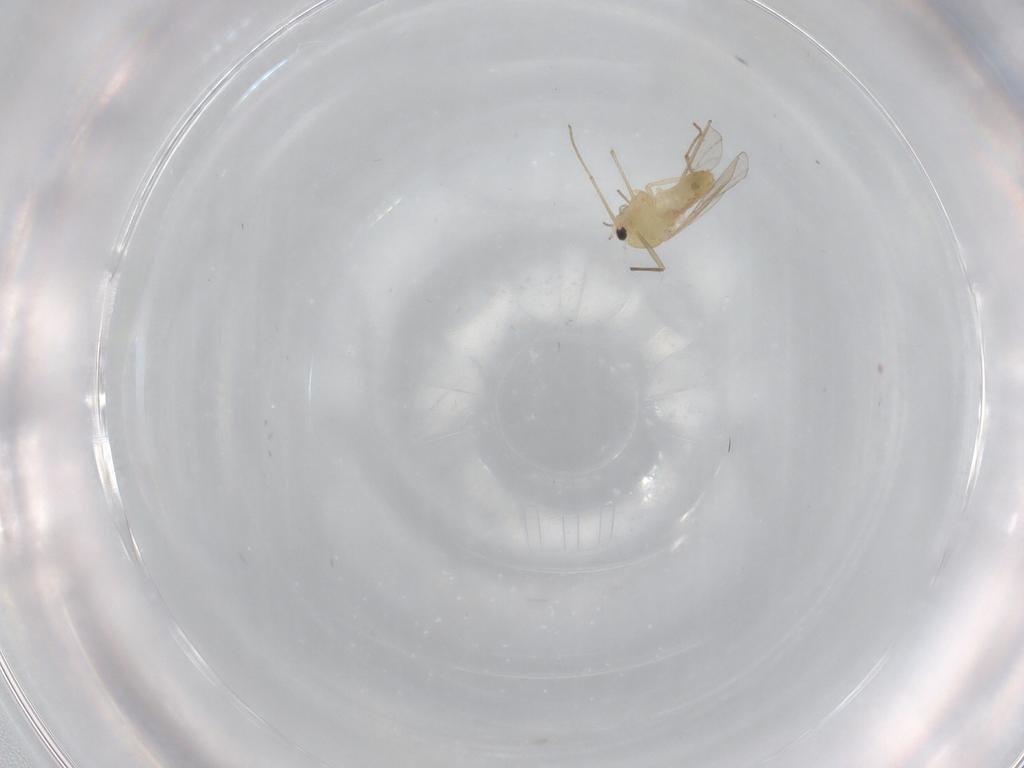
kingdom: Animalia
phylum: Arthropoda
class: Insecta
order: Diptera
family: Chironomidae
